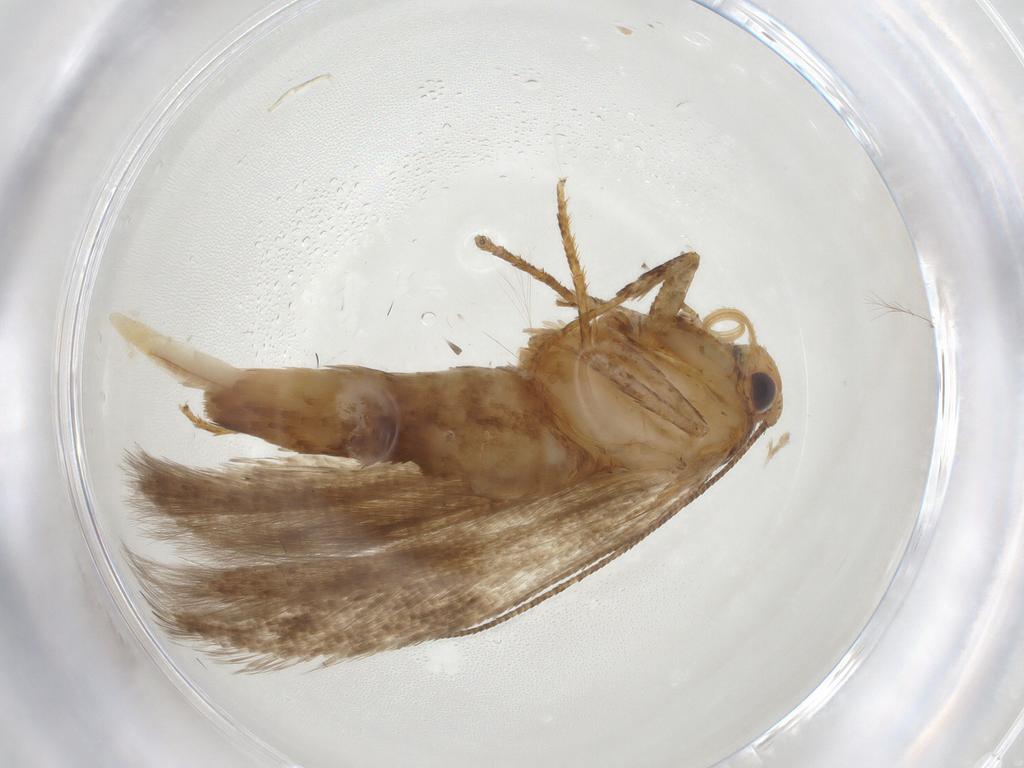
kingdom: Animalia
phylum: Arthropoda
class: Insecta
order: Lepidoptera
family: Gelechiidae
